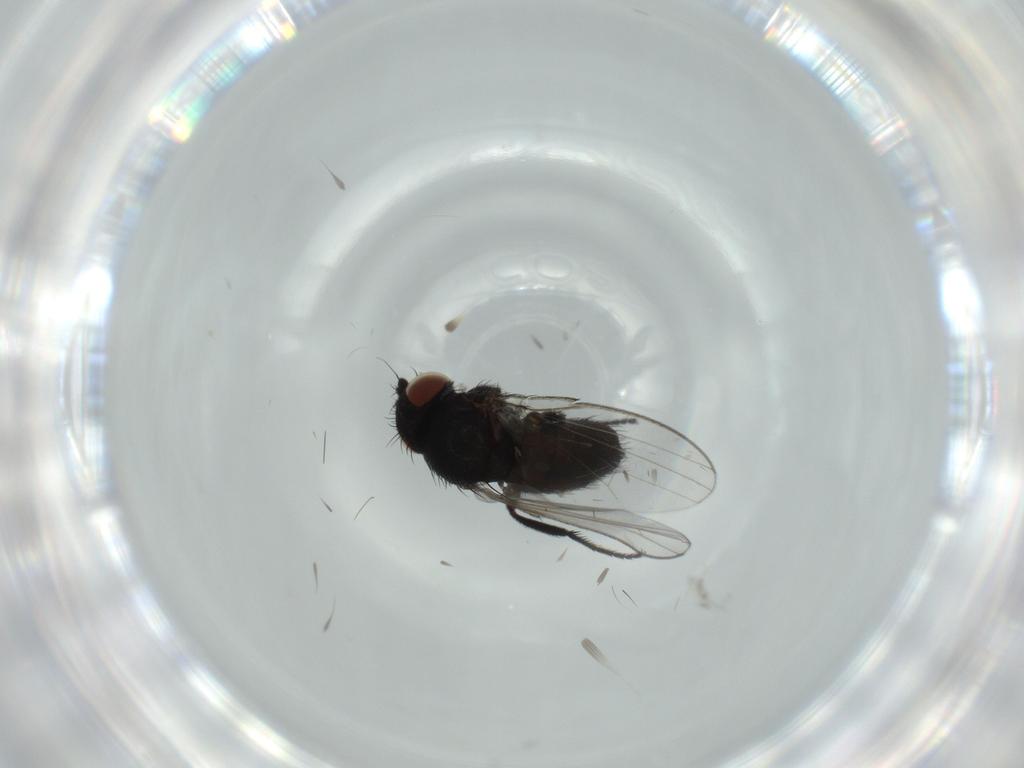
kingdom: Animalia
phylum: Arthropoda
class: Insecta
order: Diptera
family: Milichiidae
